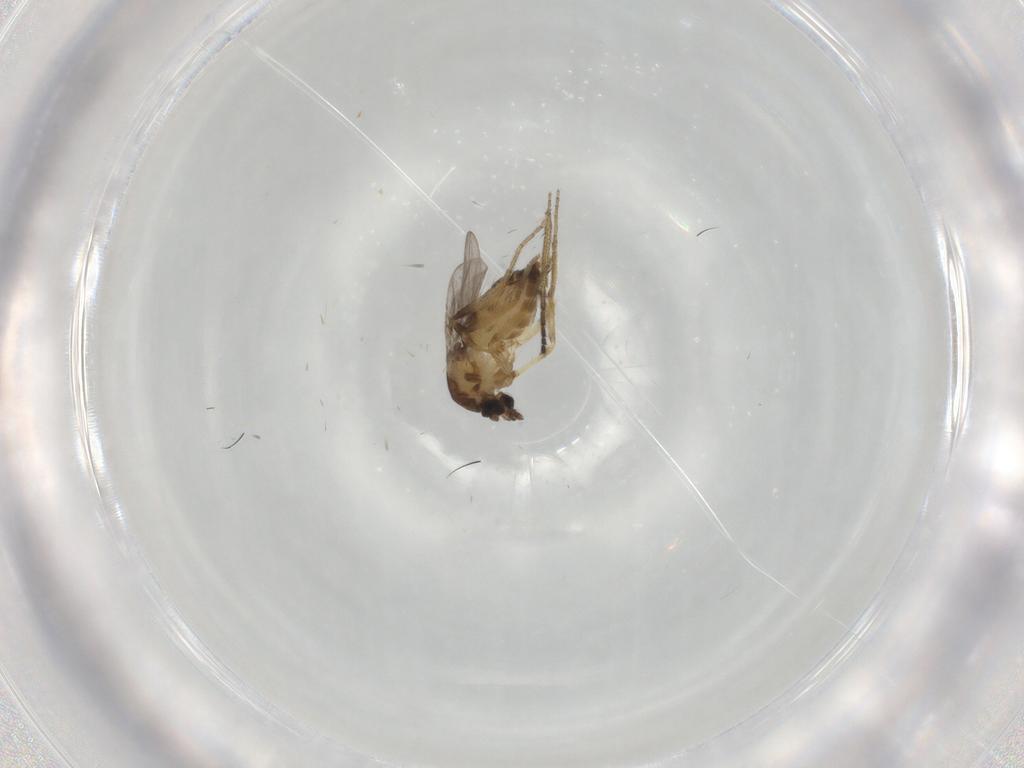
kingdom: Animalia
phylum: Arthropoda
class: Insecta
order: Diptera
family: Ceratopogonidae
